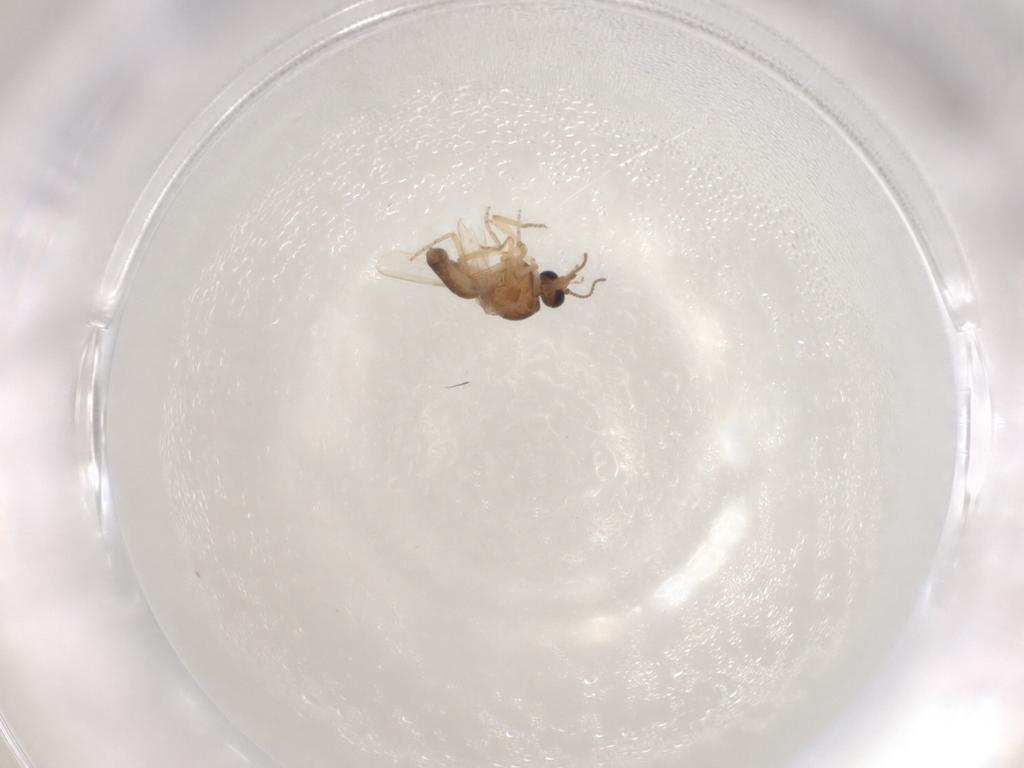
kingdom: Animalia
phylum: Arthropoda
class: Insecta
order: Diptera
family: Ceratopogonidae
